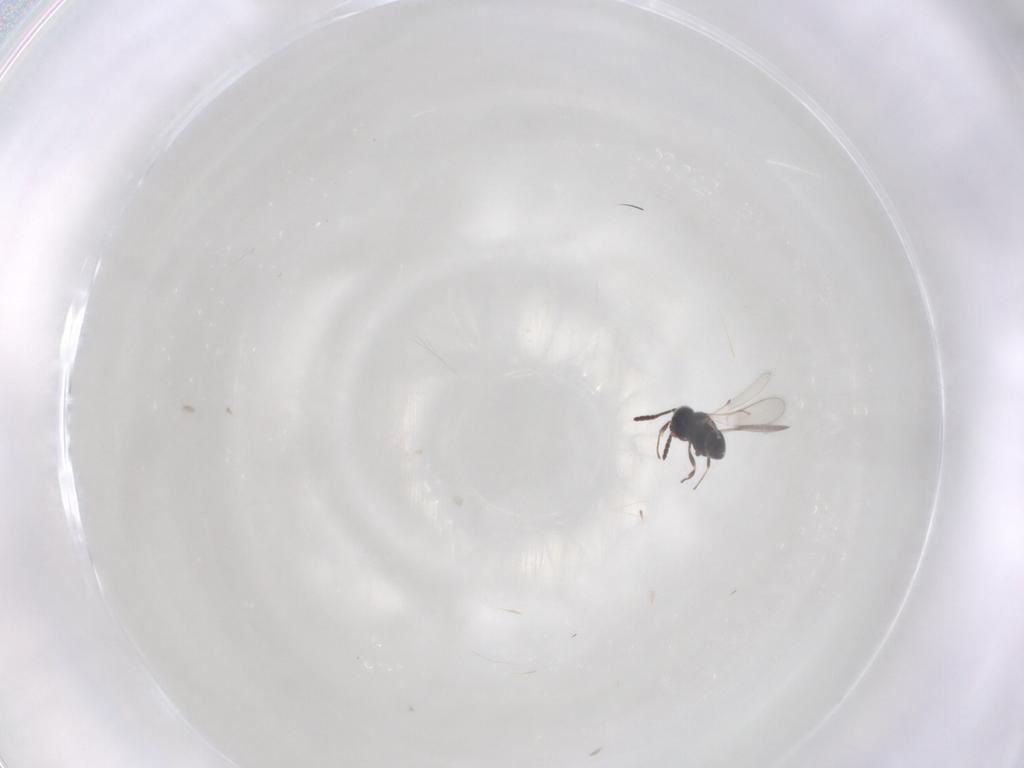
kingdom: Animalia
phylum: Arthropoda
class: Insecta
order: Hymenoptera
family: Scelionidae
